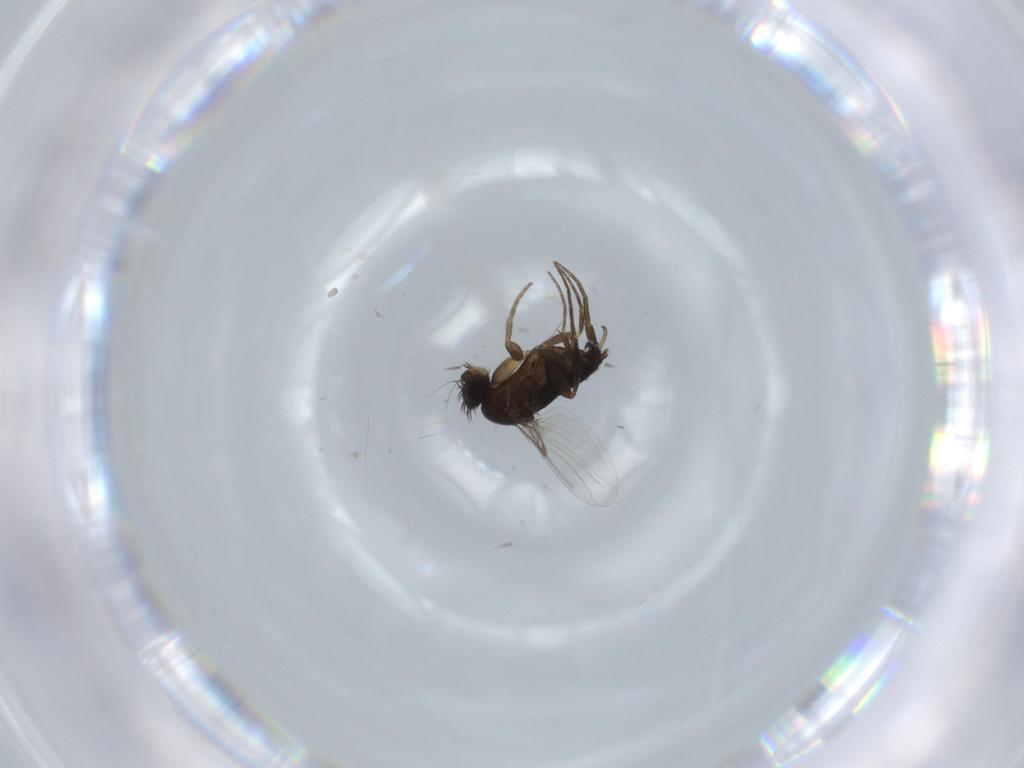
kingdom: Animalia
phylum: Arthropoda
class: Insecta
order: Diptera
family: Phoridae
